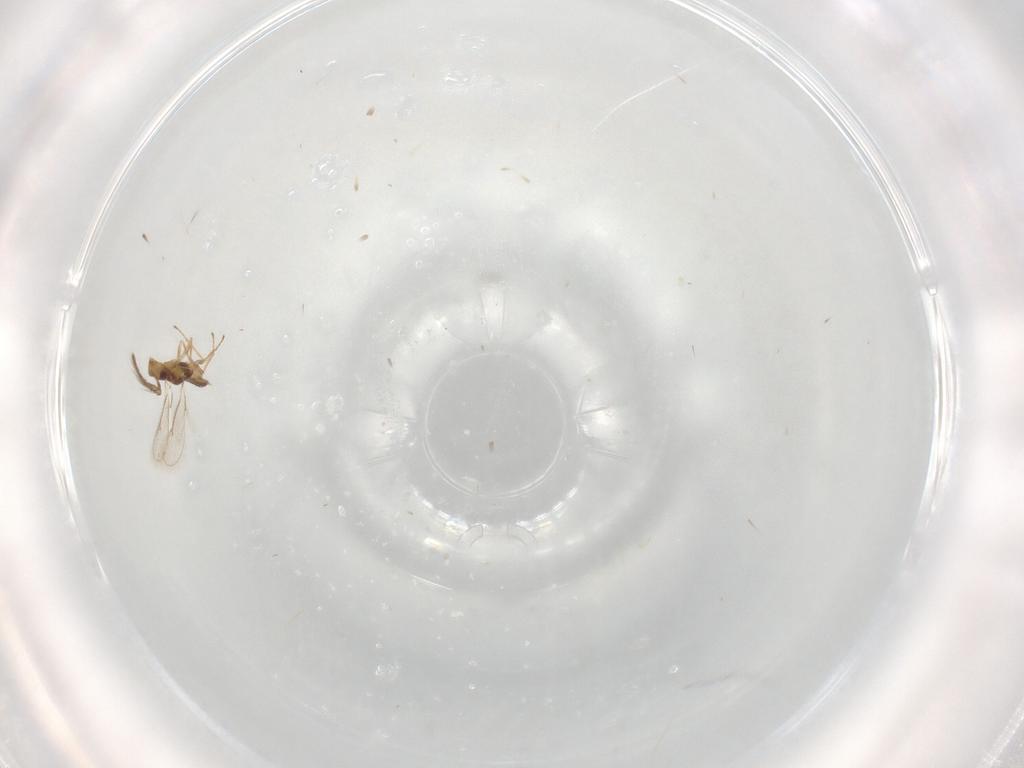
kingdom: Animalia
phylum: Arthropoda
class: Insecta
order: Hymenoptera
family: Eulophidae
